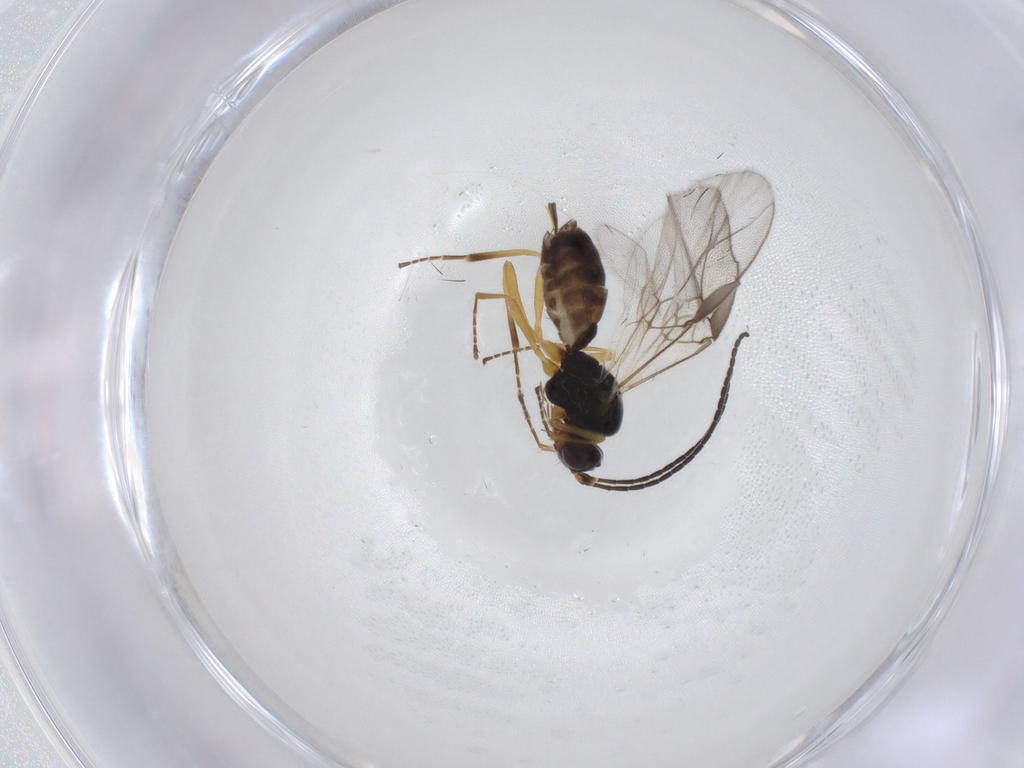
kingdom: Animalia
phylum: Arthropoda
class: Insecta
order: Hymenoptera
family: Braconidae
